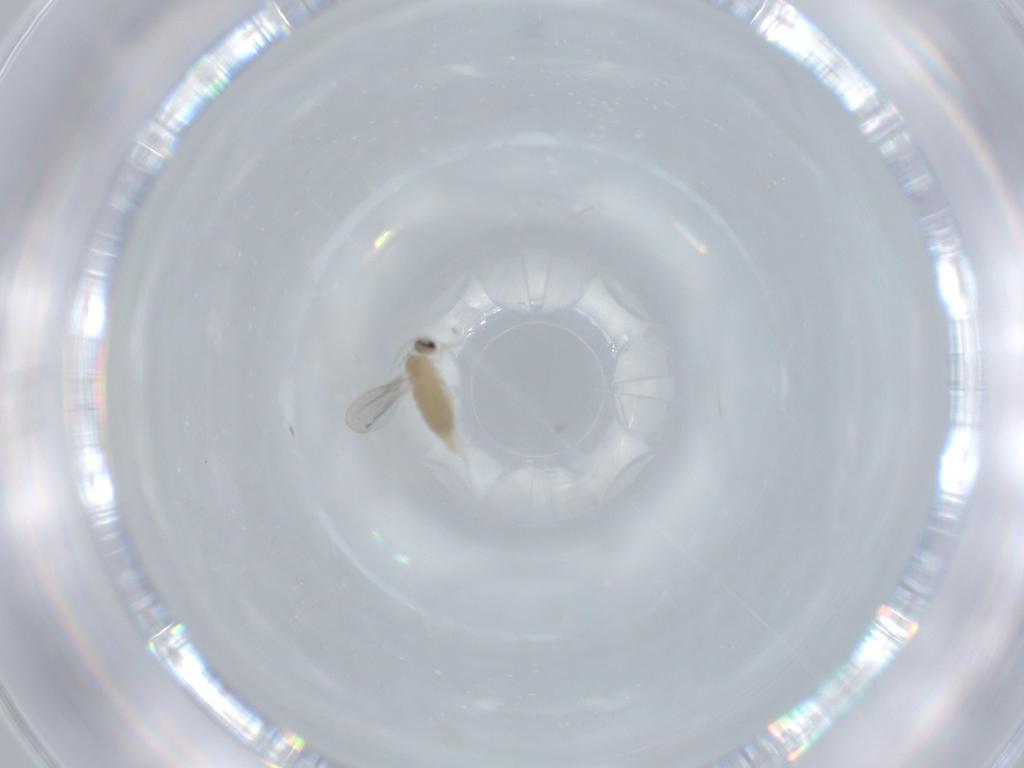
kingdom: Animalia
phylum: Arthropoda
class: Insecta
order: Diptera
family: Cecidomyiidae
